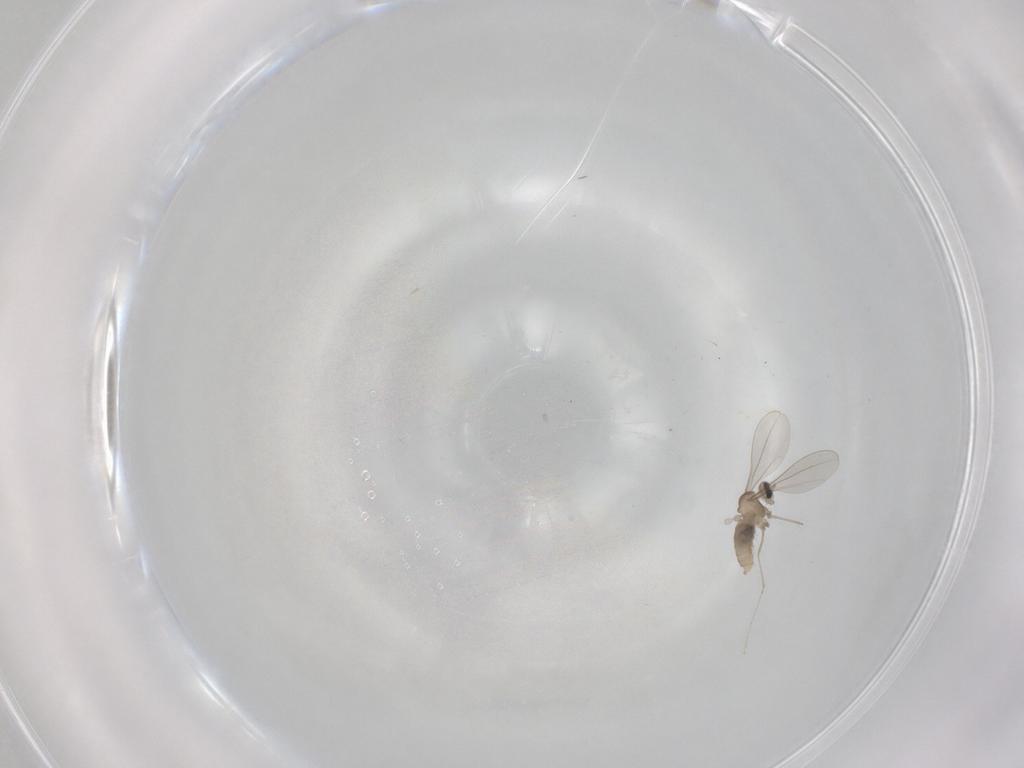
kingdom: Animalia
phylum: Arthropoda
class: Insecta
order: Diptera
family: Cecidomyiidae
